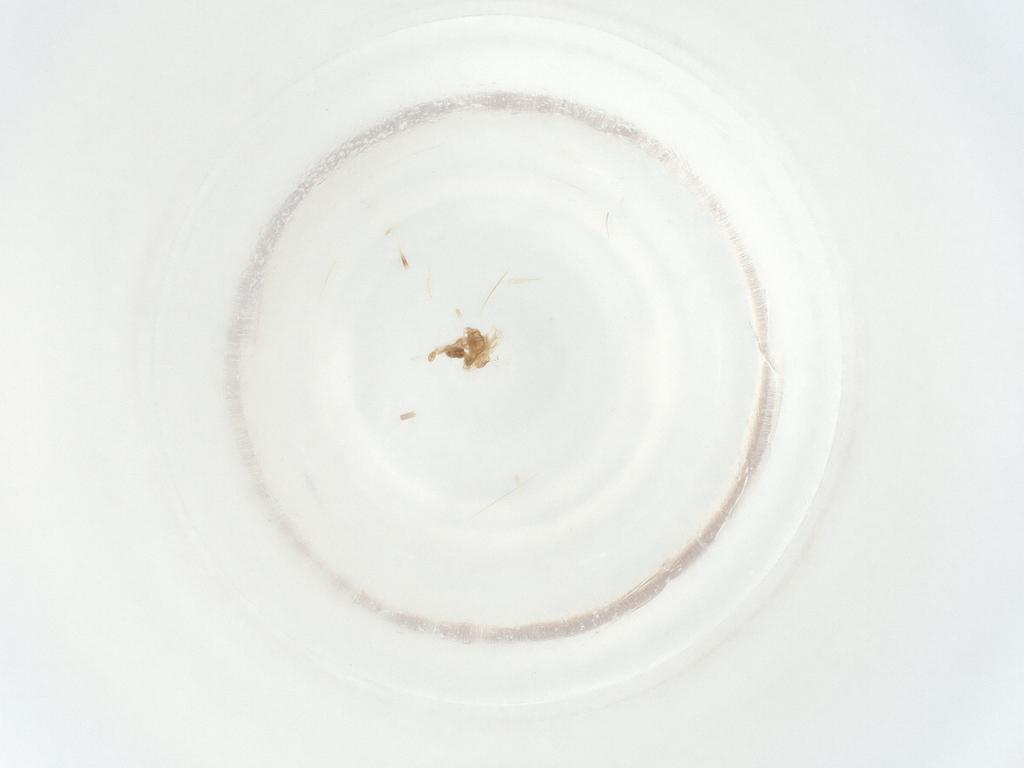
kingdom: Animalia
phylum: Arthropoda
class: Insecta
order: Diptera
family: Cecidomyiidae
